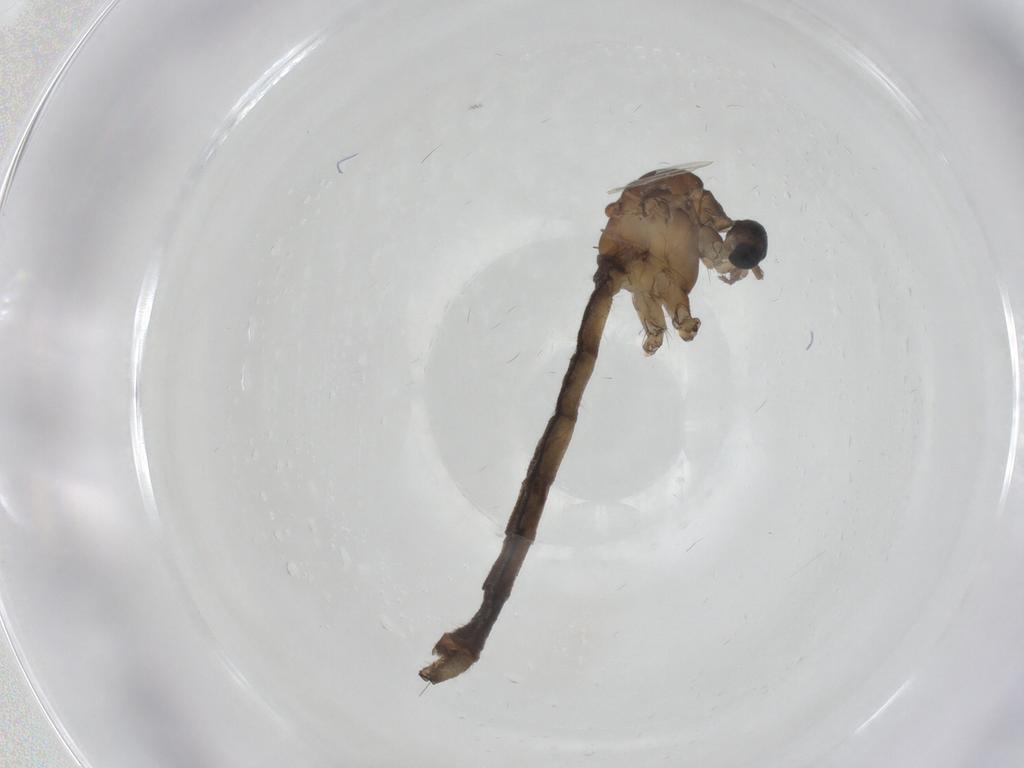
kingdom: Animalia
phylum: Arthropoda
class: Insecta
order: Diptera
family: Limoniidae
